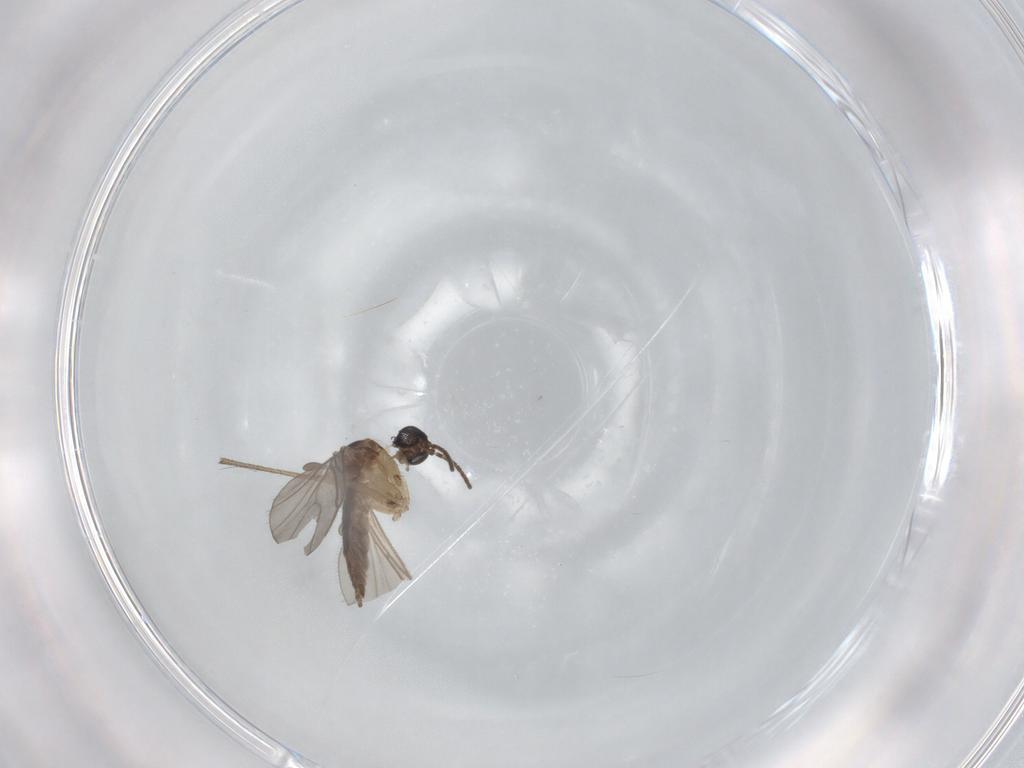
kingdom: Animalia
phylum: Arthropoda
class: Insecta
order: Diptera
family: Sciaridae
